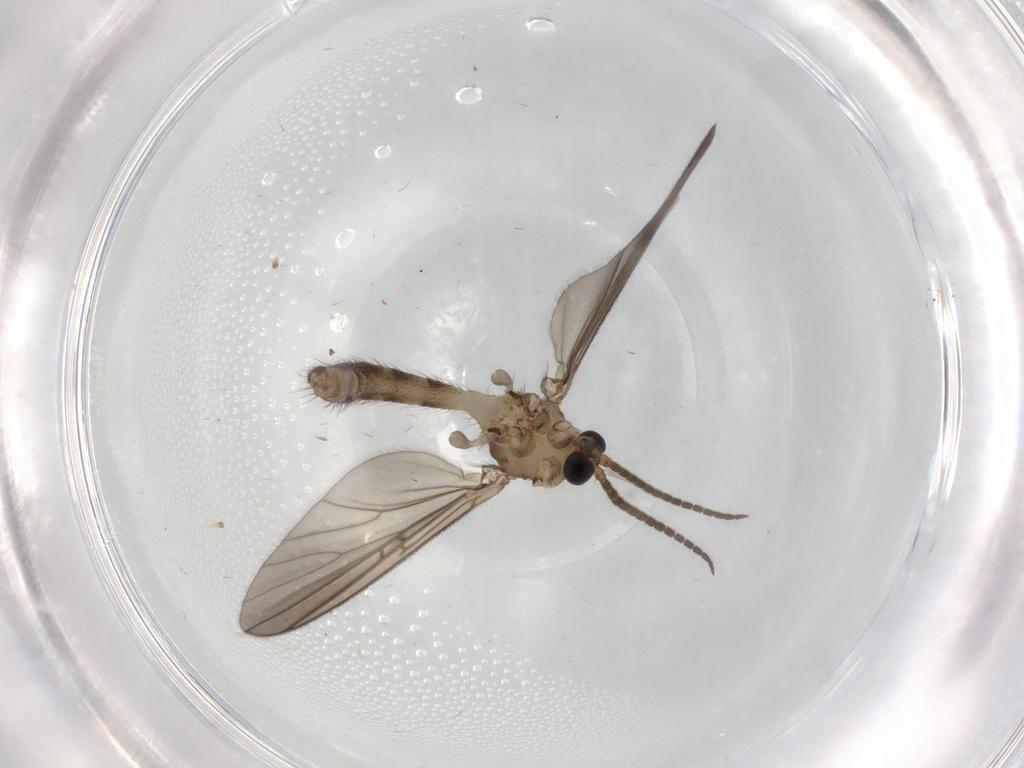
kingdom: Animalia
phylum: Arthropoda
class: Insecta
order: Diptera
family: Mycetophilidae
